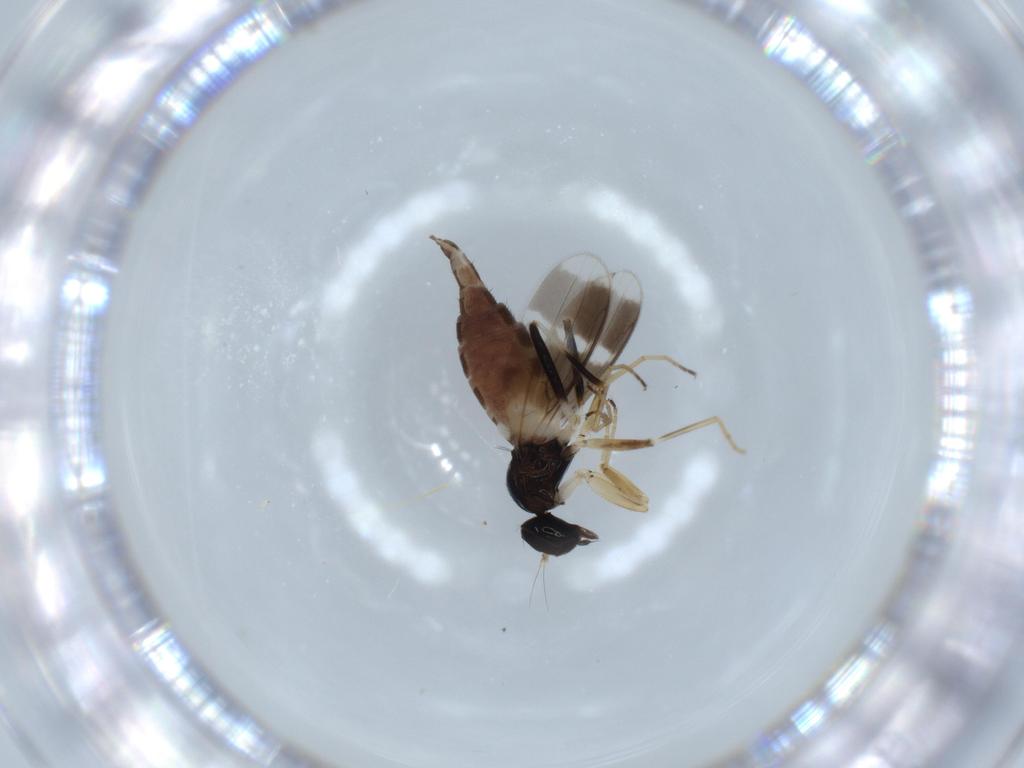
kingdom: Animalia
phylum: Arthropoda
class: Insecta
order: Diptera
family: Hybotidae
